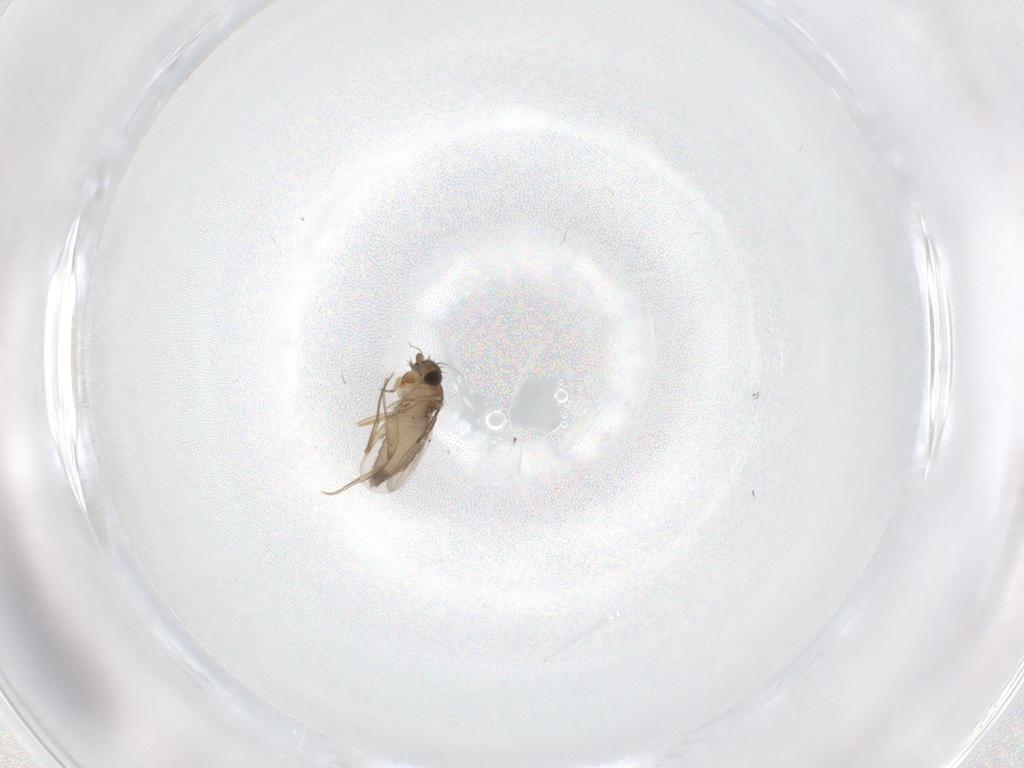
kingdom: Animalia
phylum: Arthropoda
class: Insecta
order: Diptera
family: Phoridae
